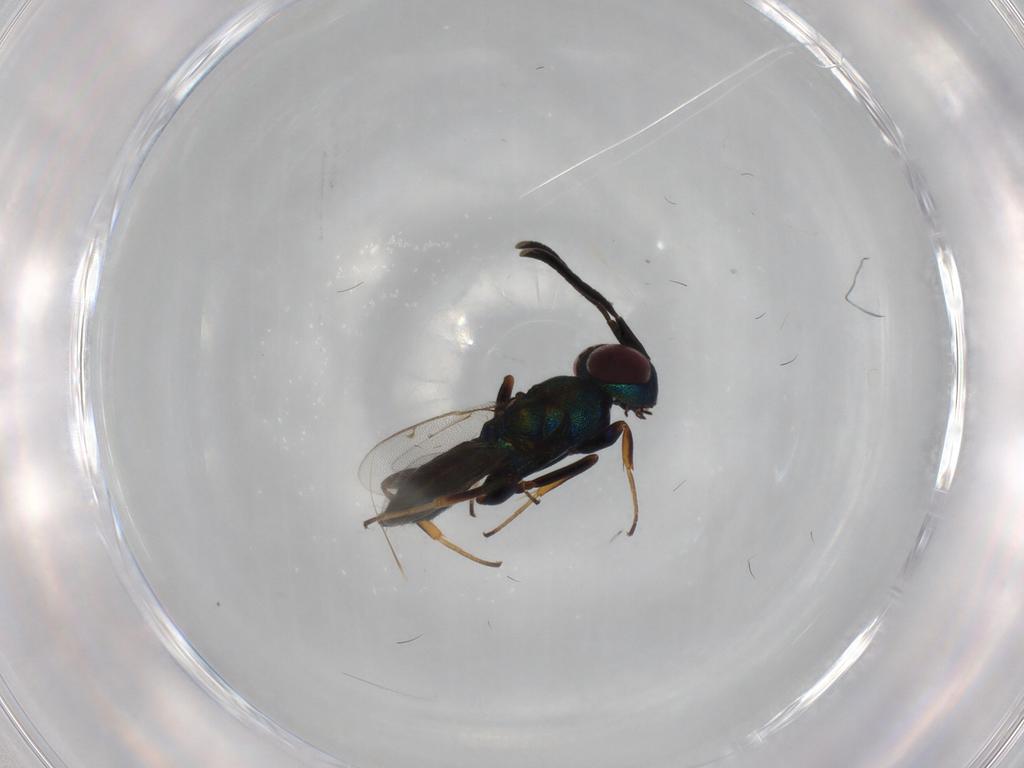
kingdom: Animalia
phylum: Arthropoda
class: Insecta
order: Hymenoptera
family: Eupelmidae
